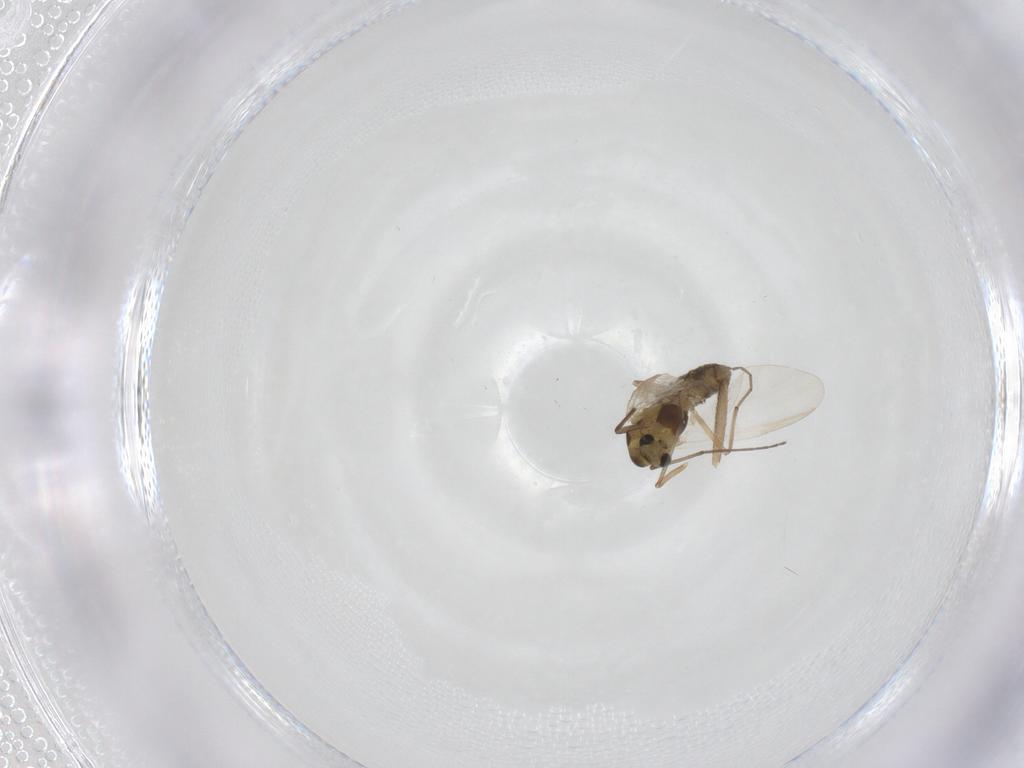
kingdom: Animalia
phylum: Arthropoda
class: Insecta
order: Diptera
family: Chironomidae
